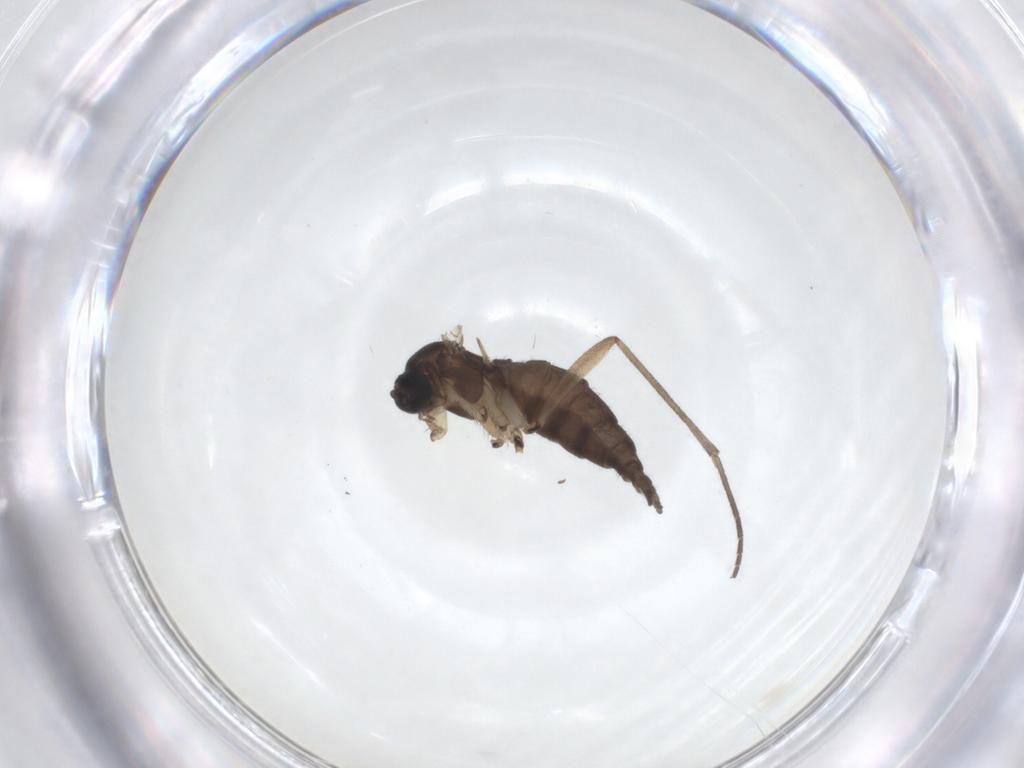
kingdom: Animalia
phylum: Arthropoda
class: Insecta
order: Diptera
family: Sciaridae
